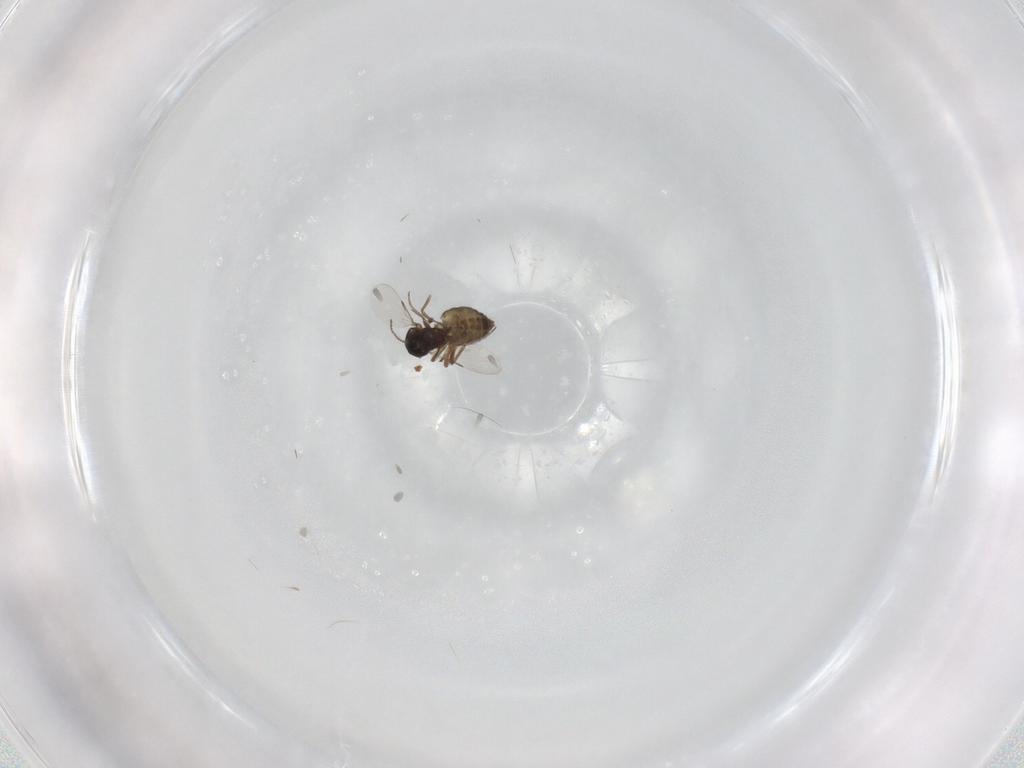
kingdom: Animalia
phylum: Arthropoda
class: Insecta
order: Diptera
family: Ceratopogonidae
